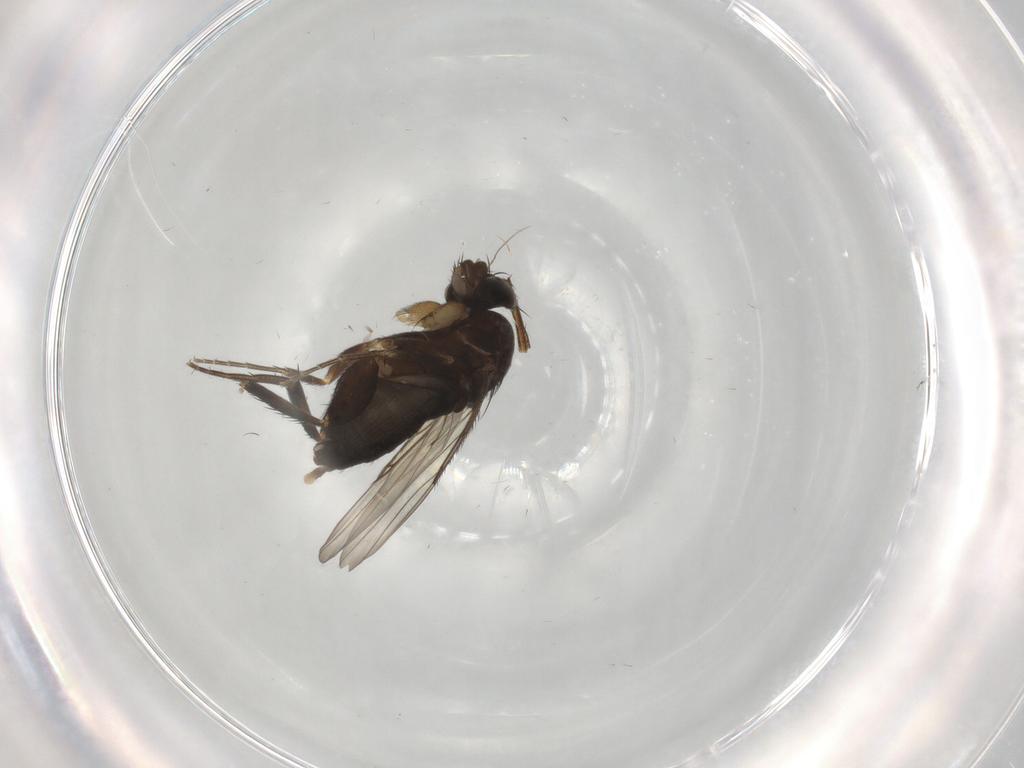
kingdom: Animalia
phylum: Arthropoda
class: Insecta
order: Diptera
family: Phoridae
